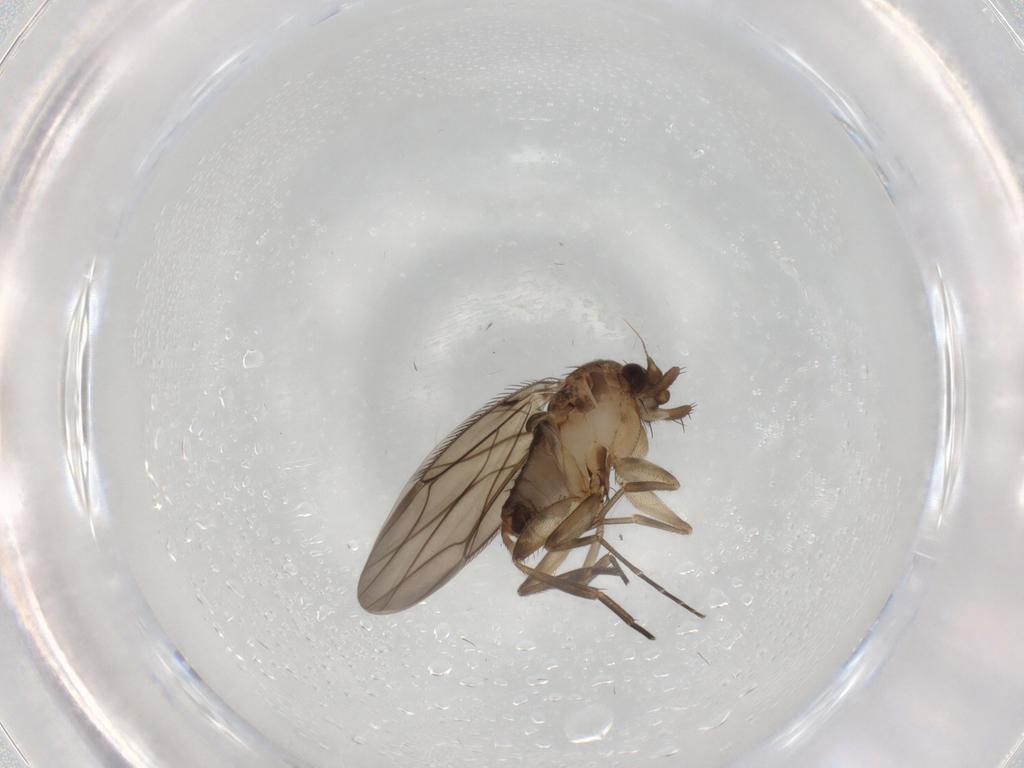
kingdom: Animalia
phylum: Arthropoda
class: Insecta
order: Diptera
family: Phoridae
